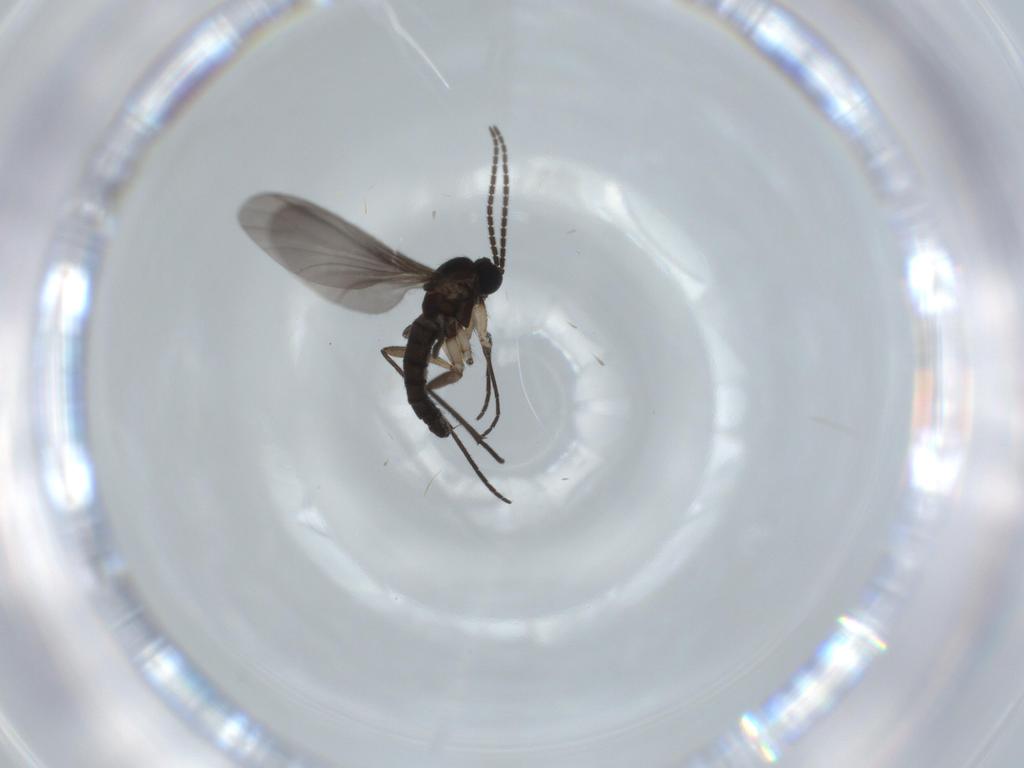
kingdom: Animalia
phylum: Arthropoda
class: Insecta
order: Diptera
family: Sciaridae
